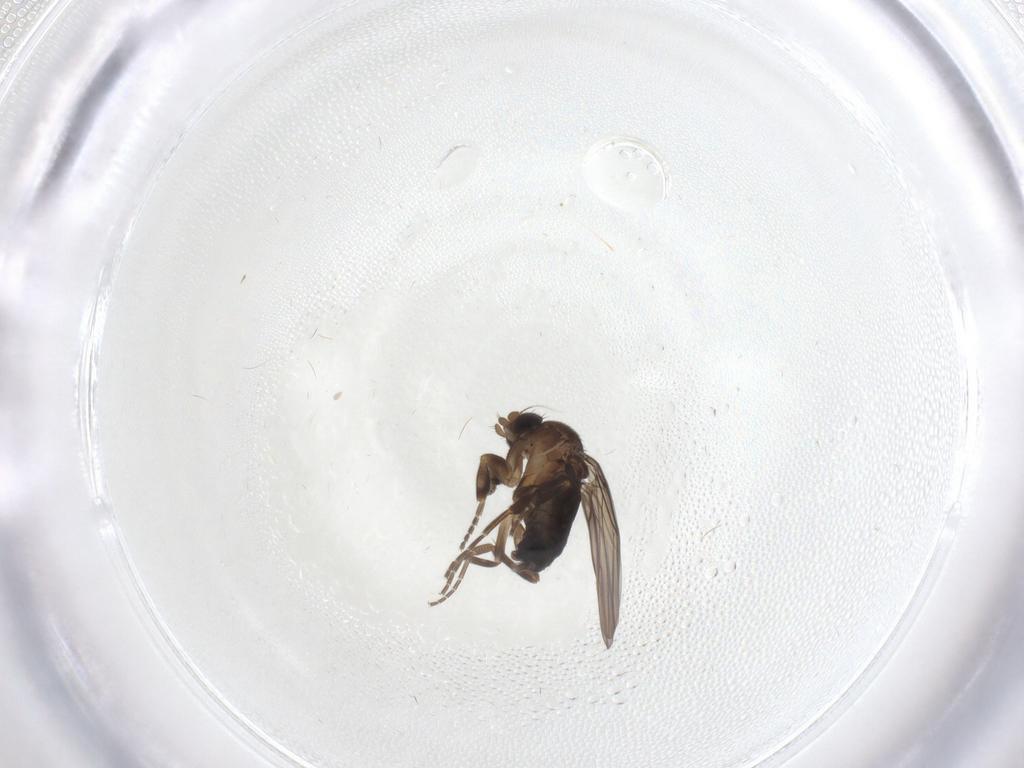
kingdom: Animalia
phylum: Arthropoda
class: Insecta
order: Diptera
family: Phoridae
